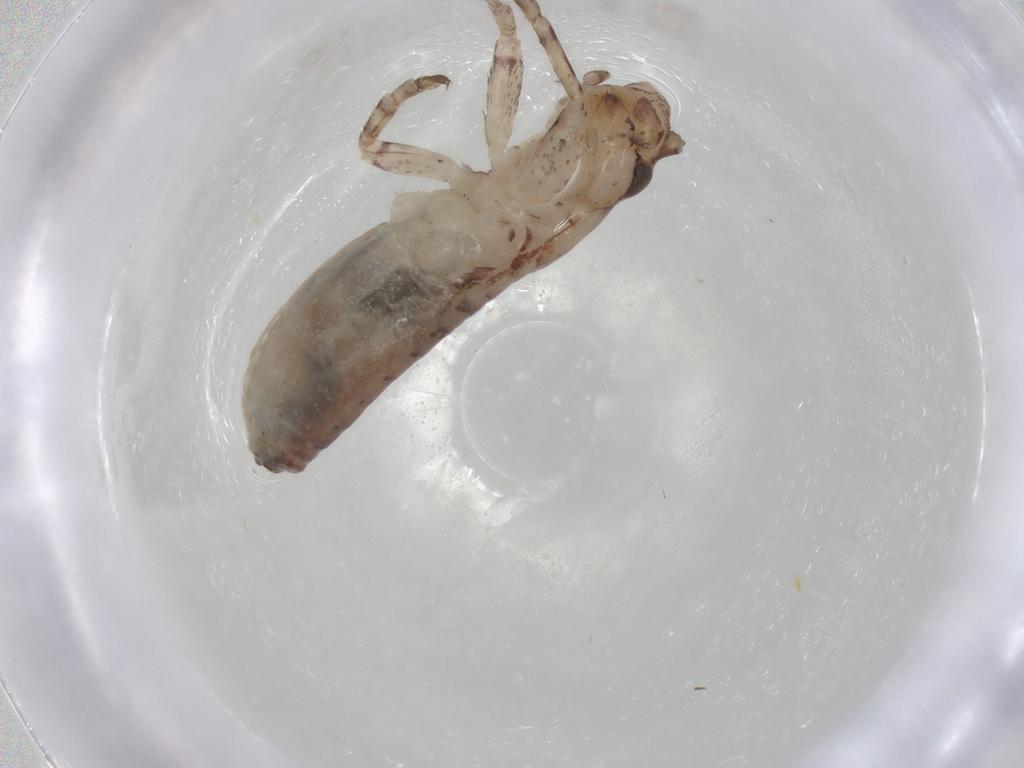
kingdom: Animalia
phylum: Arthropoda
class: Insecta
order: Orthoptera
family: Mogoplistidae
